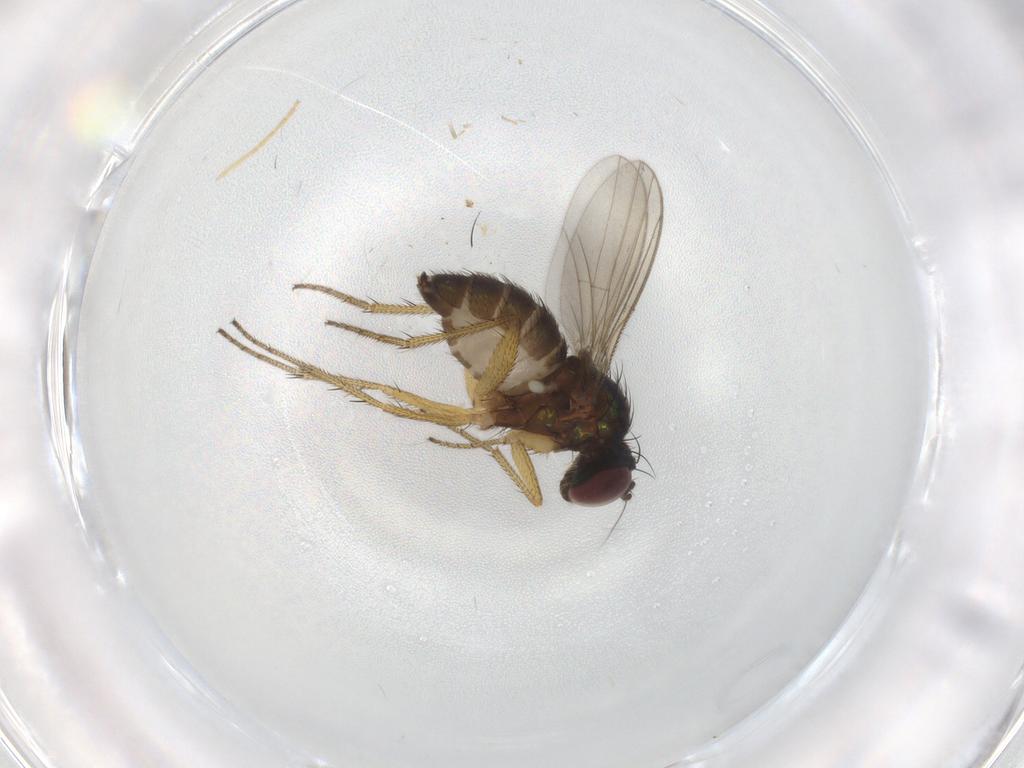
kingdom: Animalia
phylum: Arthropoda
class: Insecta
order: Diptera
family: Dolichopodidae
